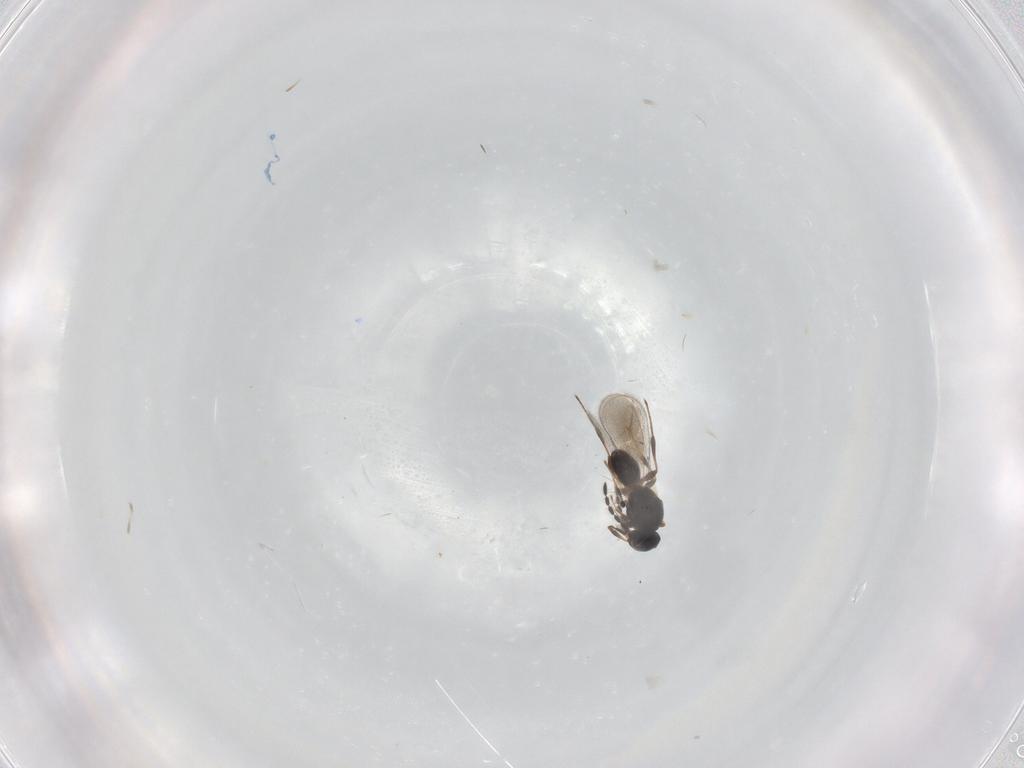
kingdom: Animalia
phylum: Arthropoda
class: Insecta
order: Hymenoptera
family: Platygastridae
